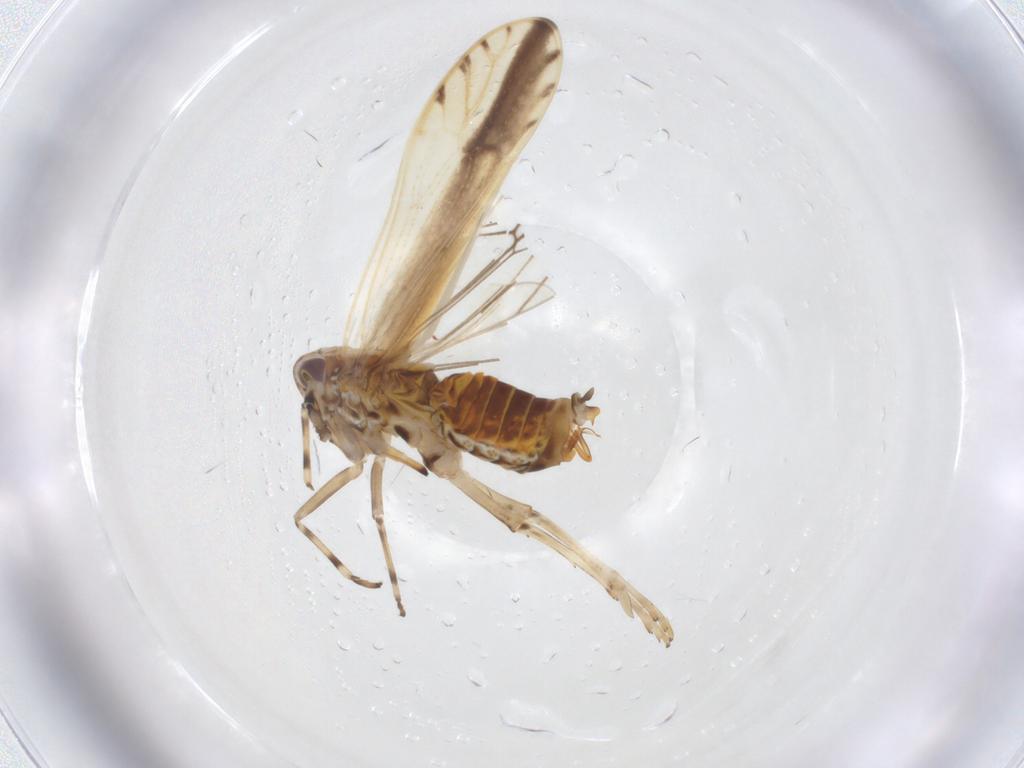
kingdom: Animalia
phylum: Arthropoda
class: Insecta
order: Hemiptera
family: Delphacidae
